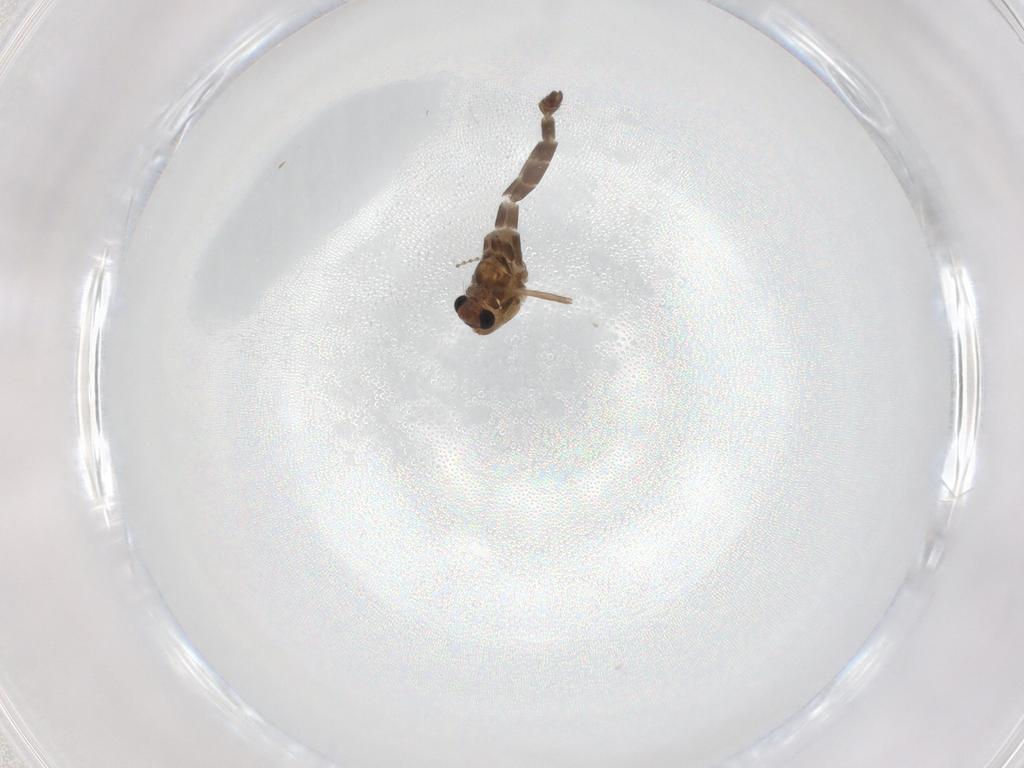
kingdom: Animalia
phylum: Arthropoda
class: Insecta
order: Diptera
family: Chironomidae
